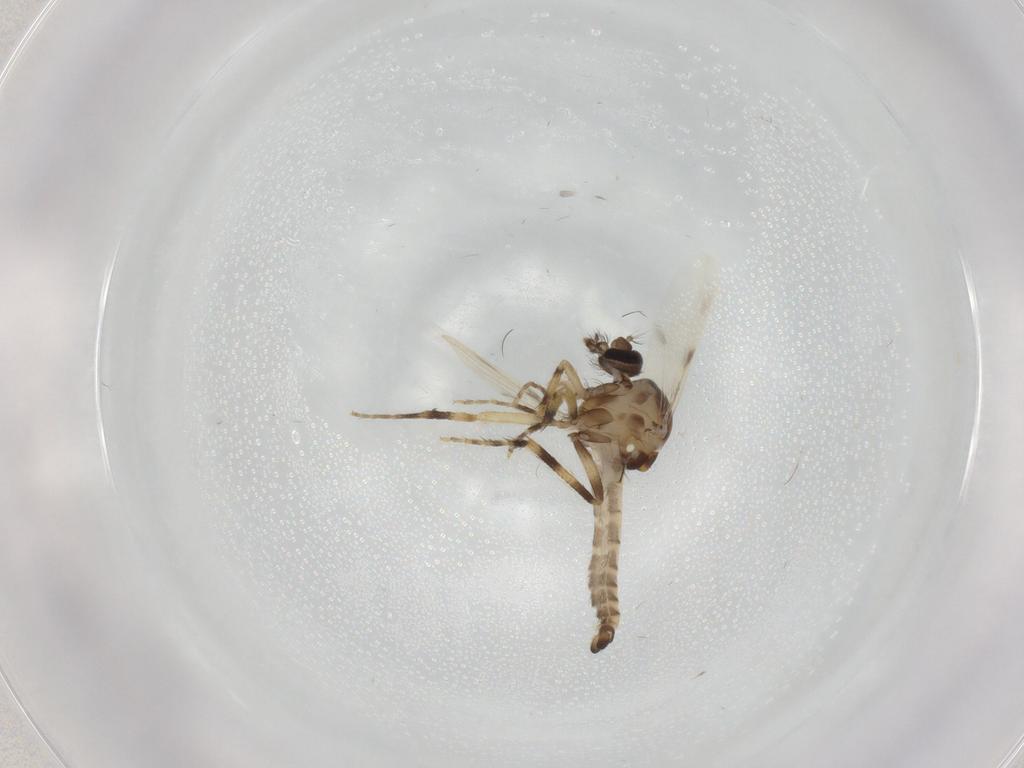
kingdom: Animalia
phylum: Arthropoda
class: Insecta
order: Diptera
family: Ceratopogonidae
